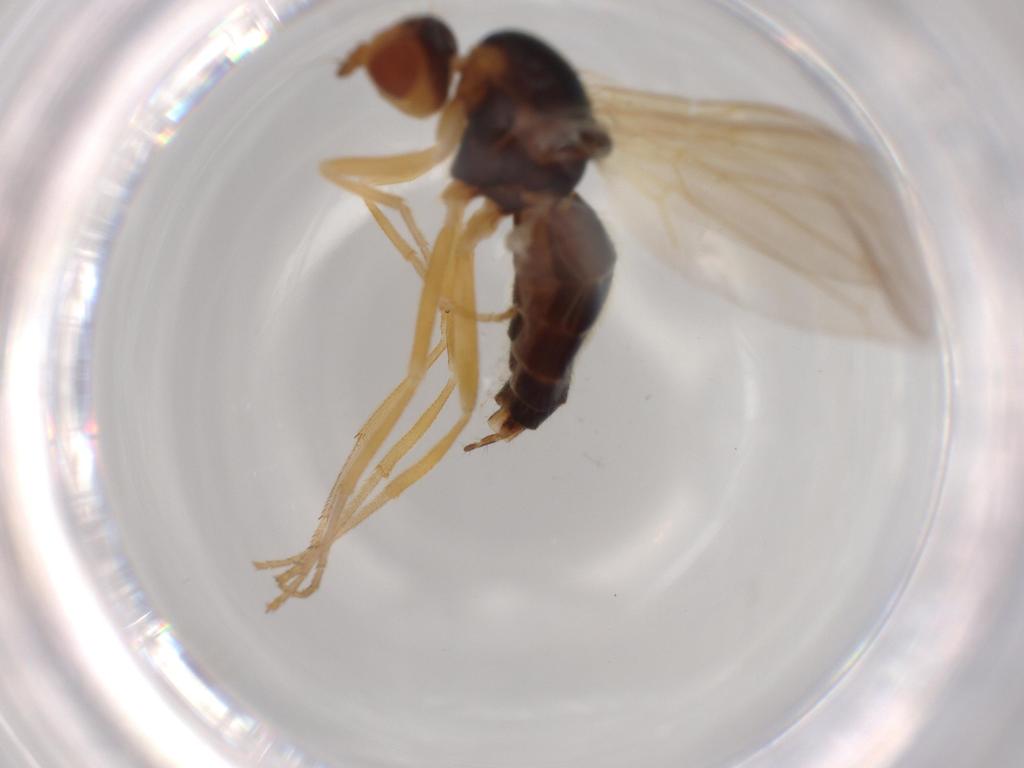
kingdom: Animalia
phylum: Arthropoda
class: Insecta
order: Diptera
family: Psilidae
